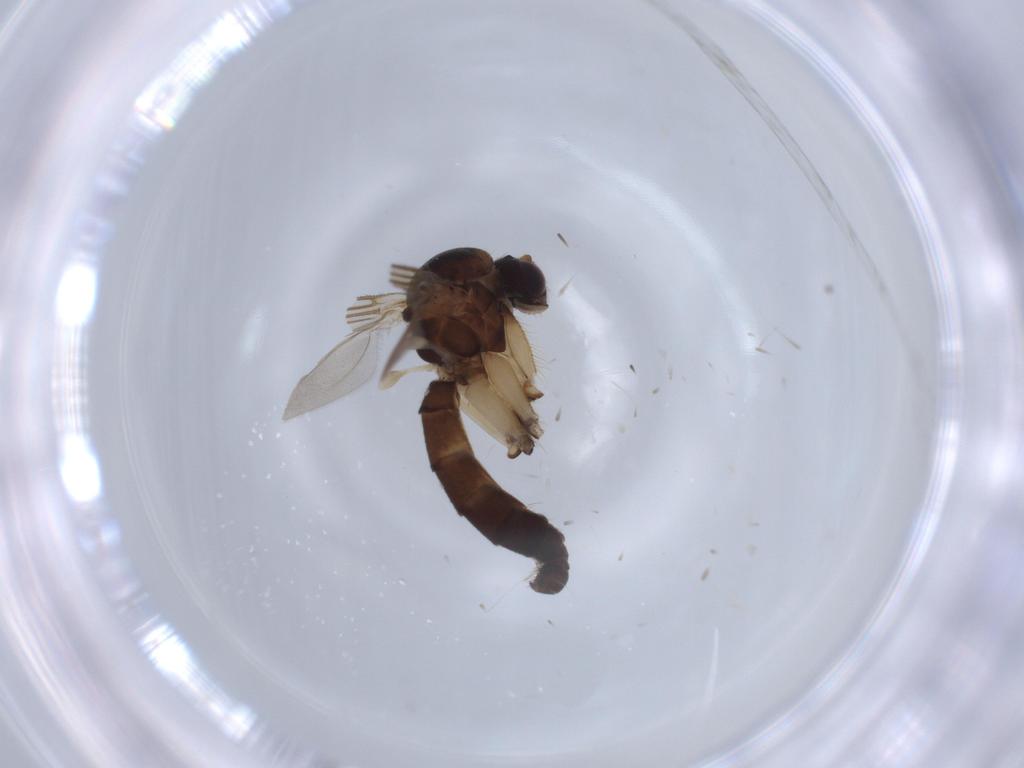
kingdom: Animalia
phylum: Arthropoda
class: Insecta
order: Diptera
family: Mycetophilidae
